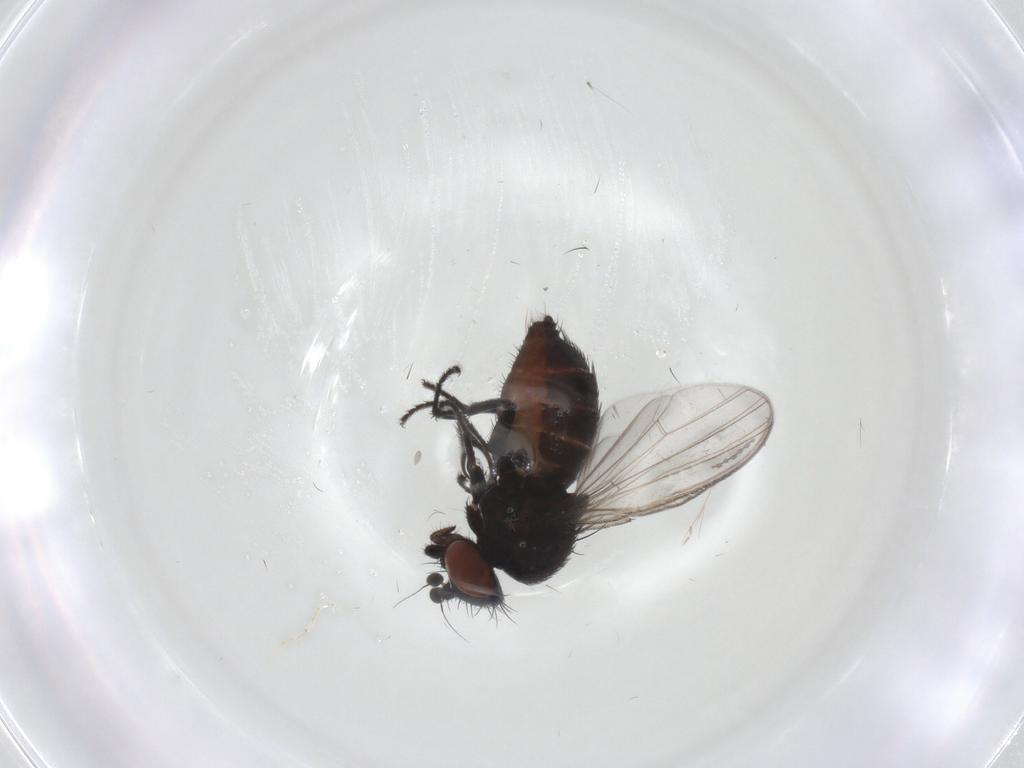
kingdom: Animalia
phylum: Arthropoda
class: Insecta
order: Diptera
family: Milichiidae
